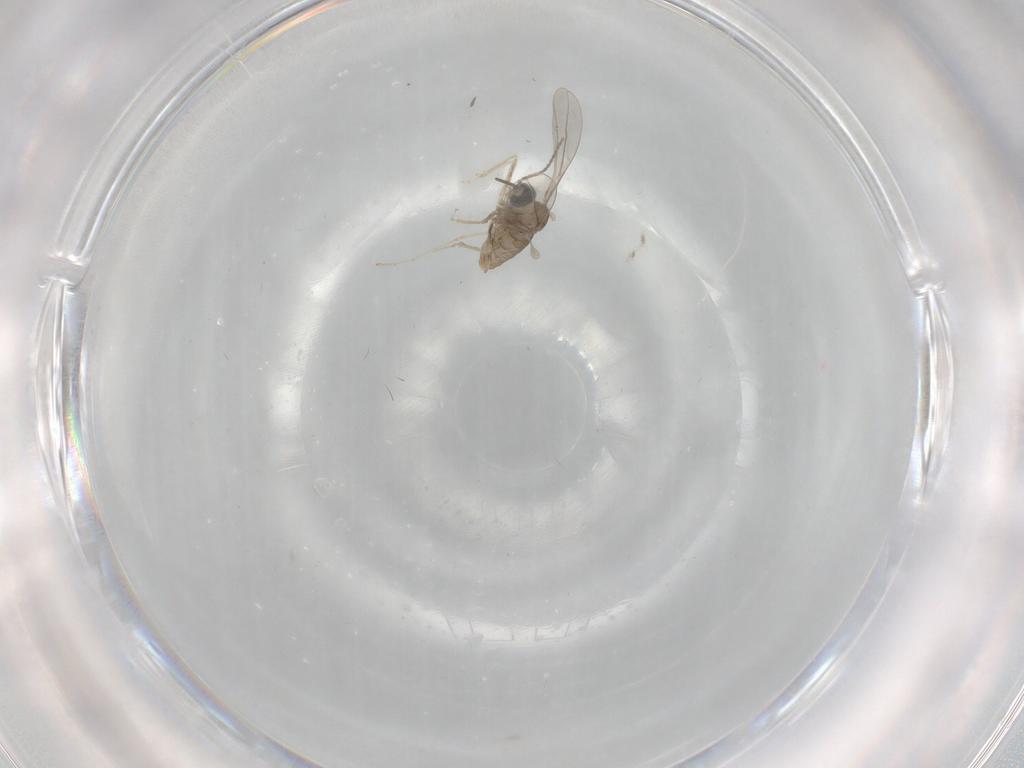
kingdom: Animalia
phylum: Arthropoda
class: Insecta
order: Diptera
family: Cecidomyiidae
